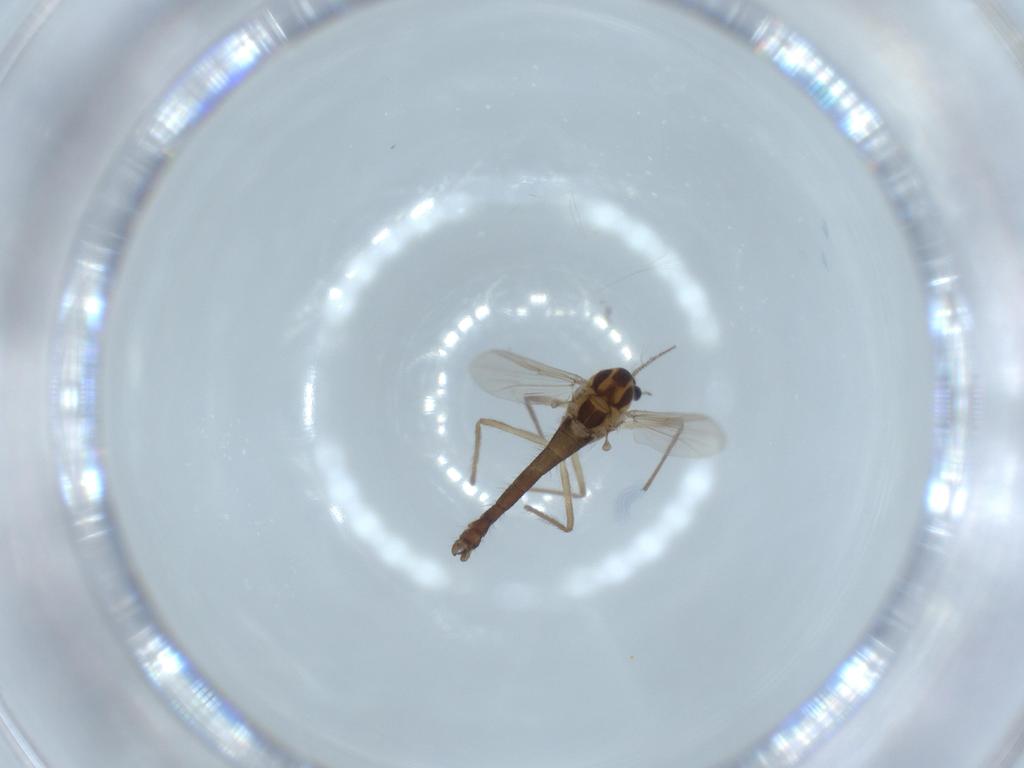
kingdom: Animalia
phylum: Arthropoda
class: Insecta
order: Diptera
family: Chironomidae
